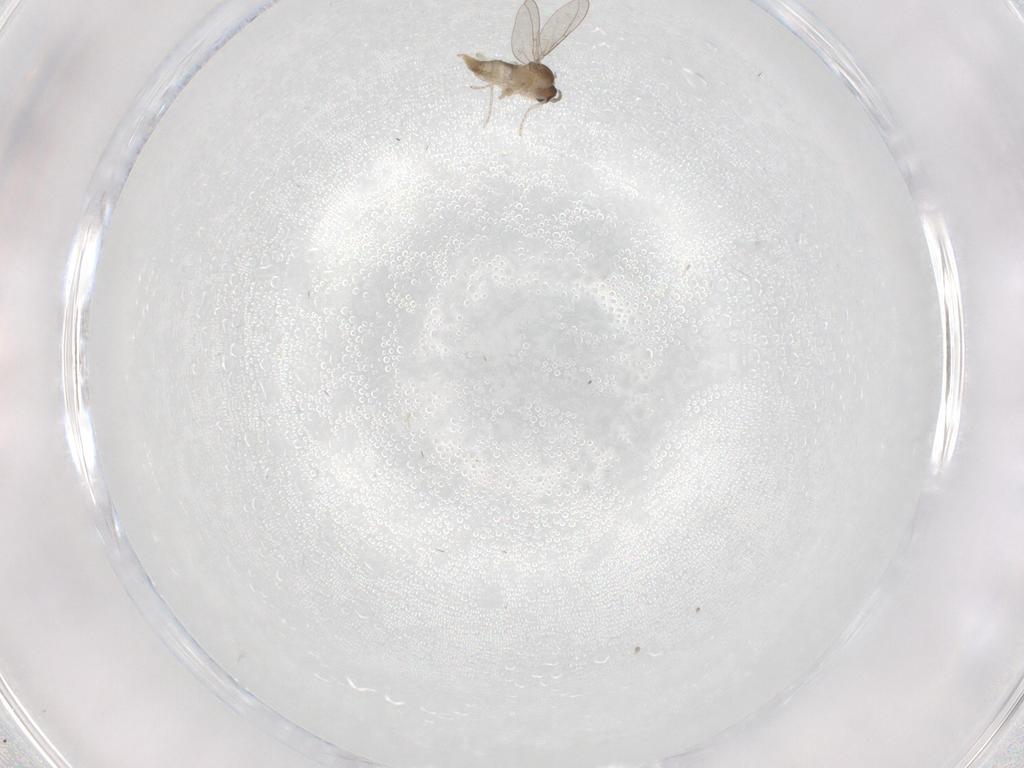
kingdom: Animalia
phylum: Arthropoda
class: Insecta
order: Diptera
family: Cecidomyiidae
